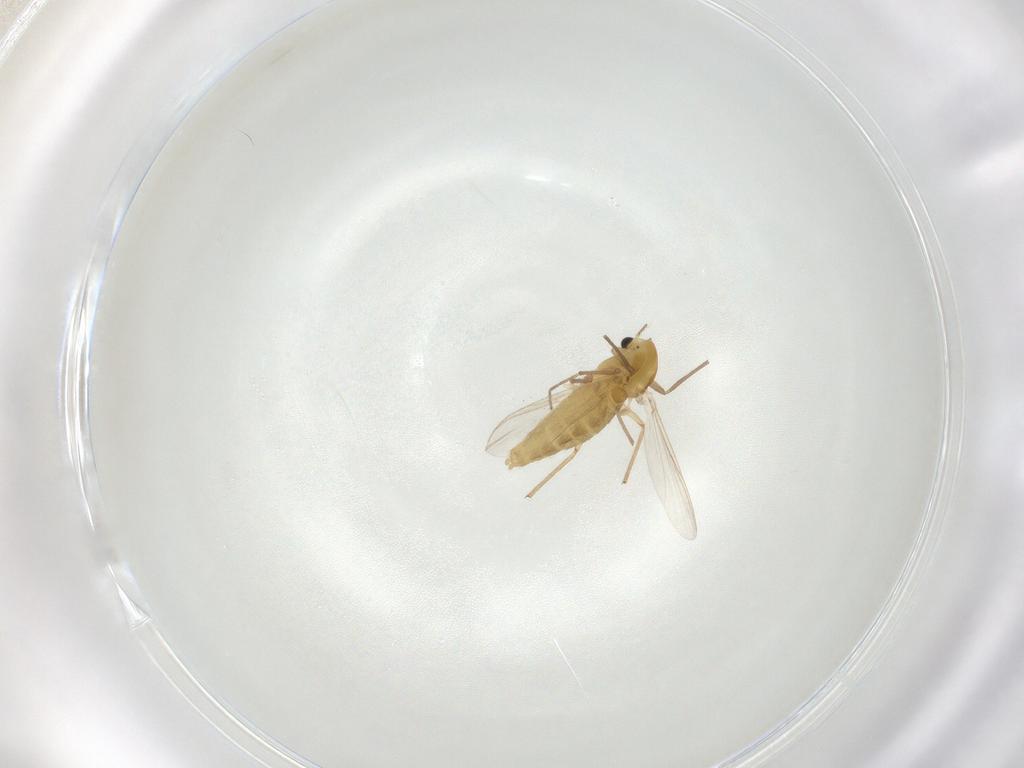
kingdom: Animalia
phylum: Arthropoda
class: Insecta
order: Diptera
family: Chironomidae
